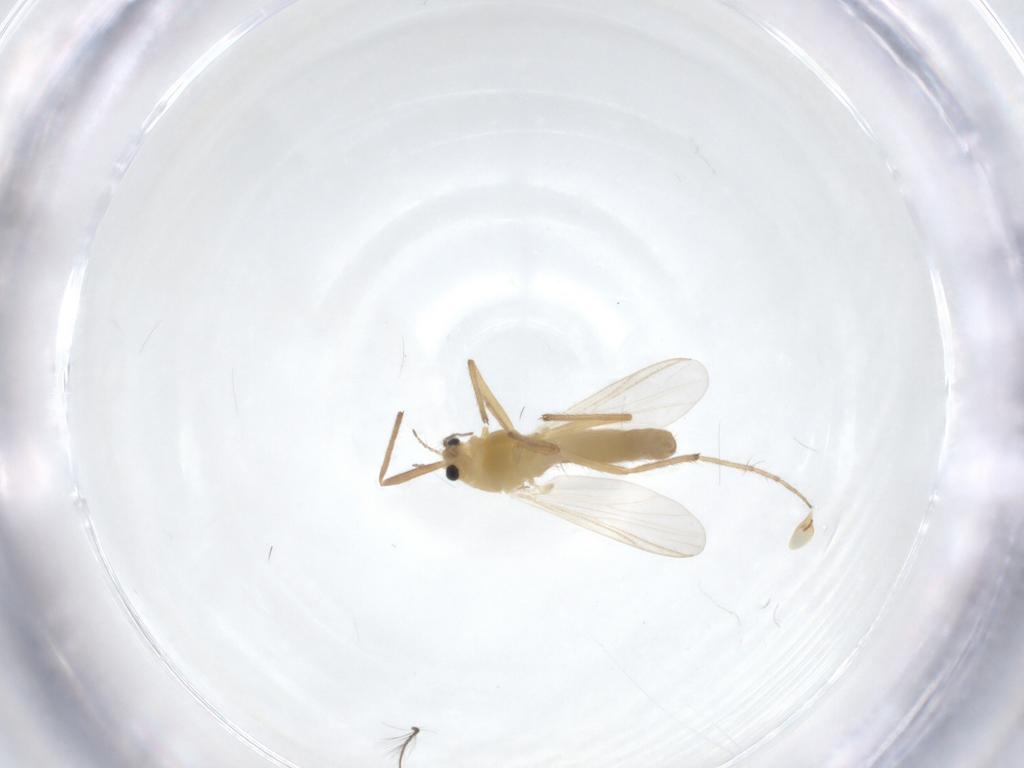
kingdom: Animalia
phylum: Arthropoda
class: Insecta
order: Diptera
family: Chironomidae
